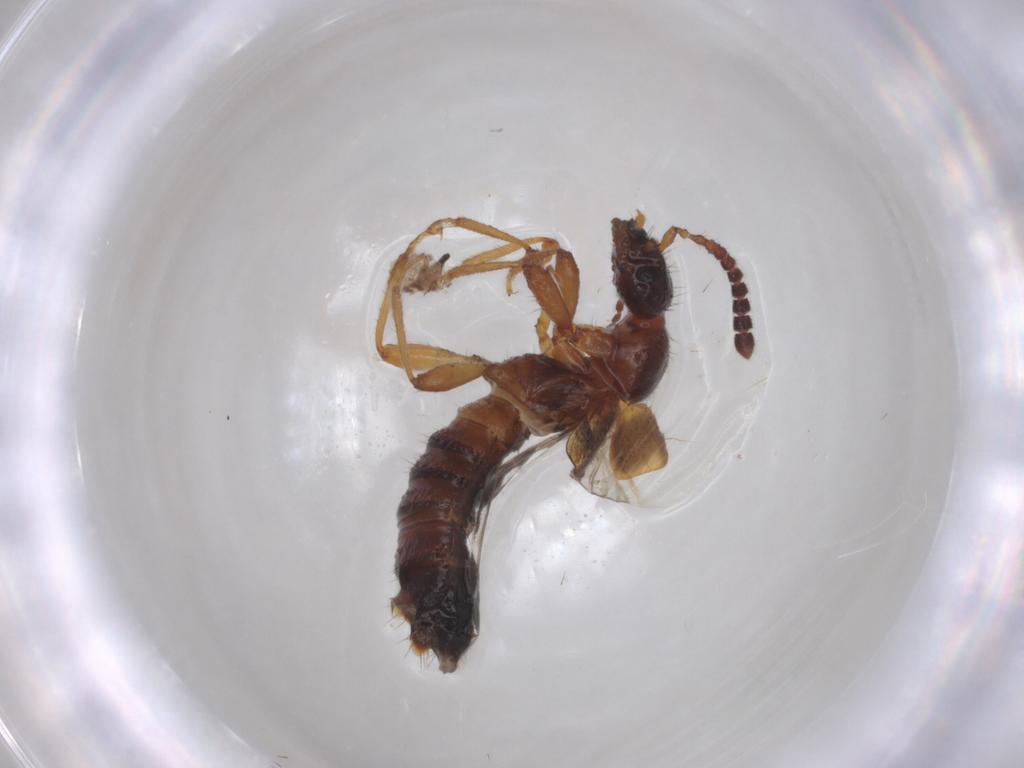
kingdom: Animalia
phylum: Arthropoda
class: Insecta
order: Coleoptera
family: Staphylinidae
